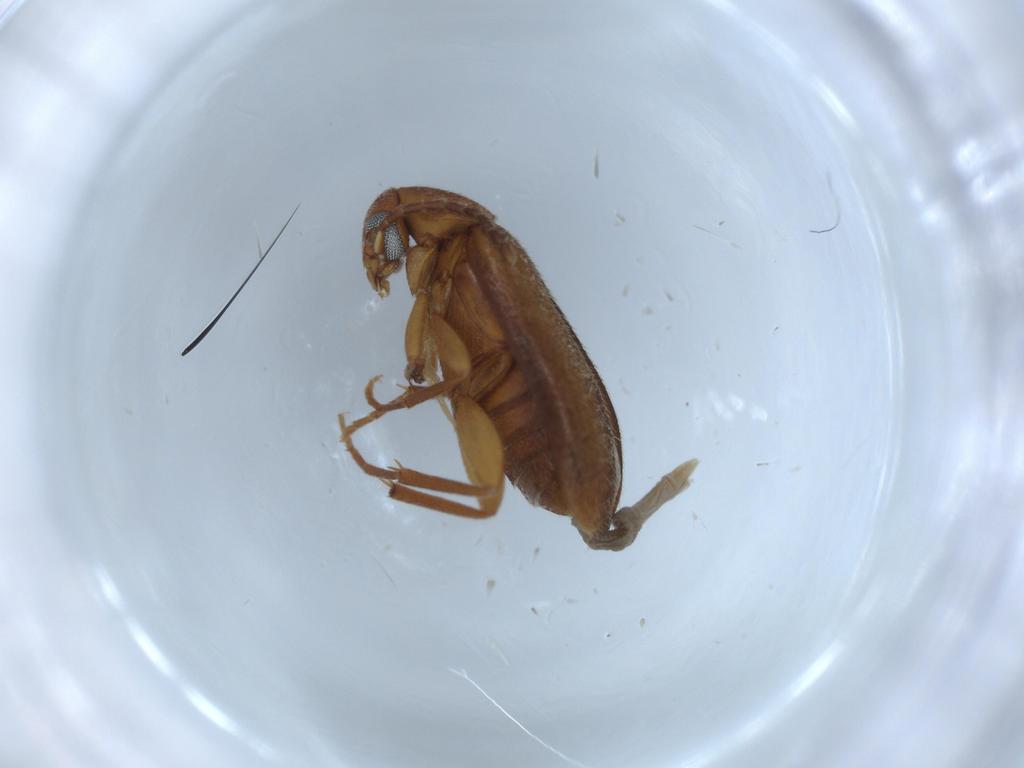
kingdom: Animalia
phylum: Arthropoda
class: Insecta
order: Coleoptera
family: Scraptiidae
